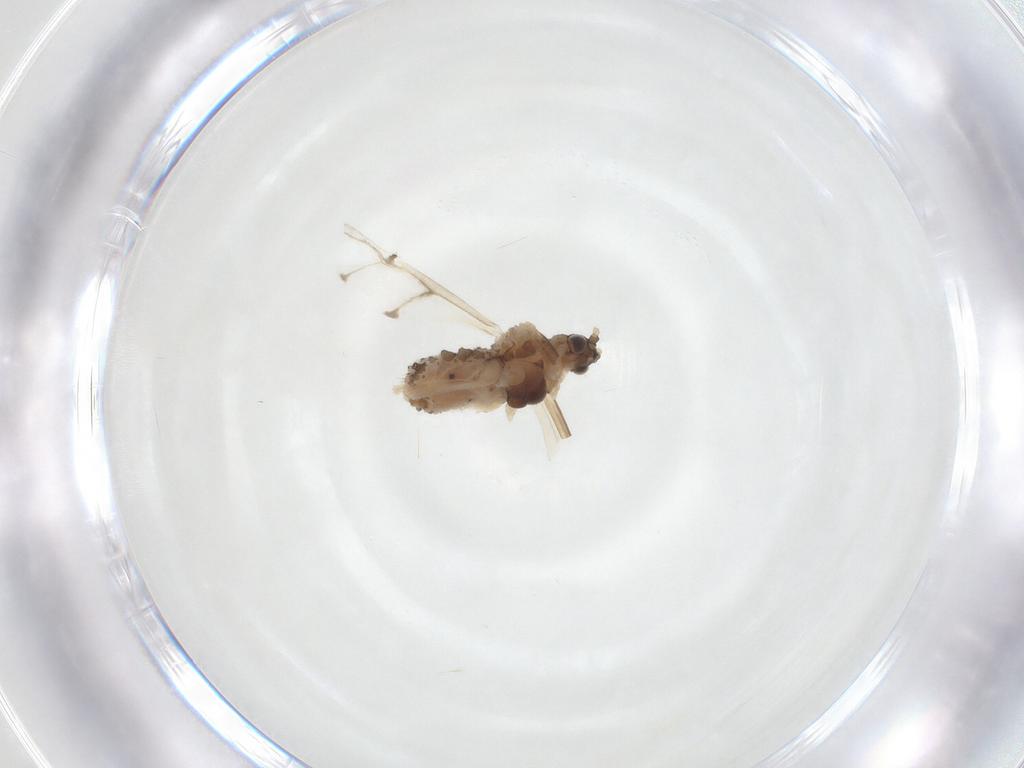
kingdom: Animalia
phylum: Arthropoda
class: Insecta
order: Hemiptera
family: Aphididae
